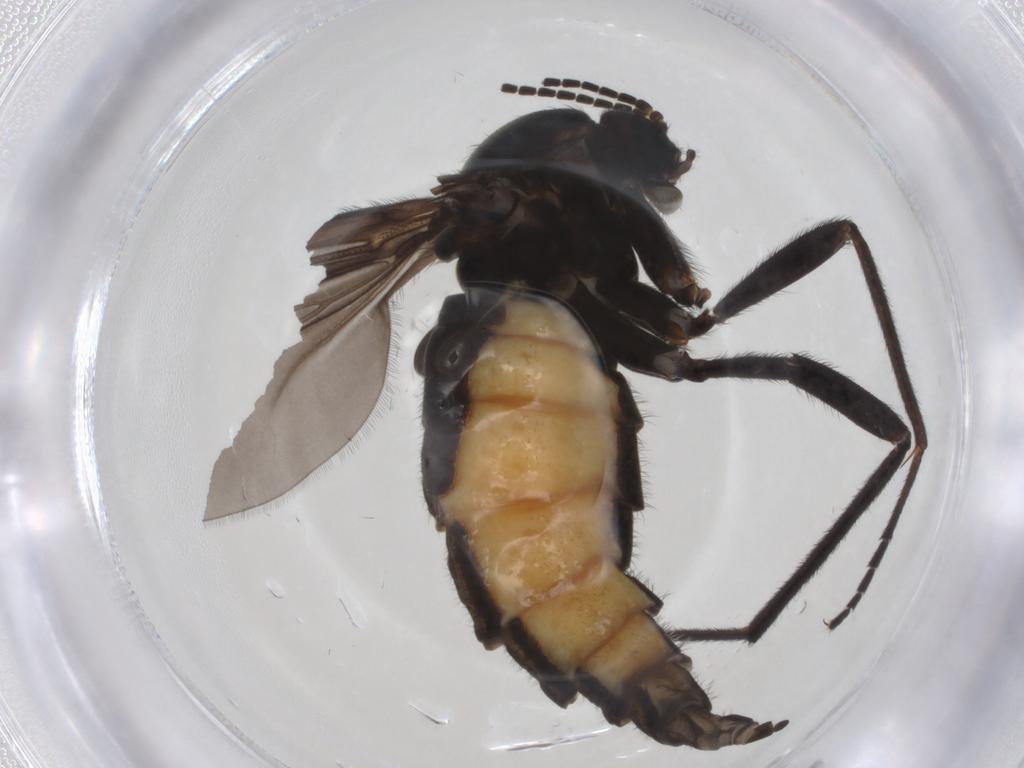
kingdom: Animalia
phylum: Arthropoda
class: Insecta
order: Diptera
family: Sciaridae
